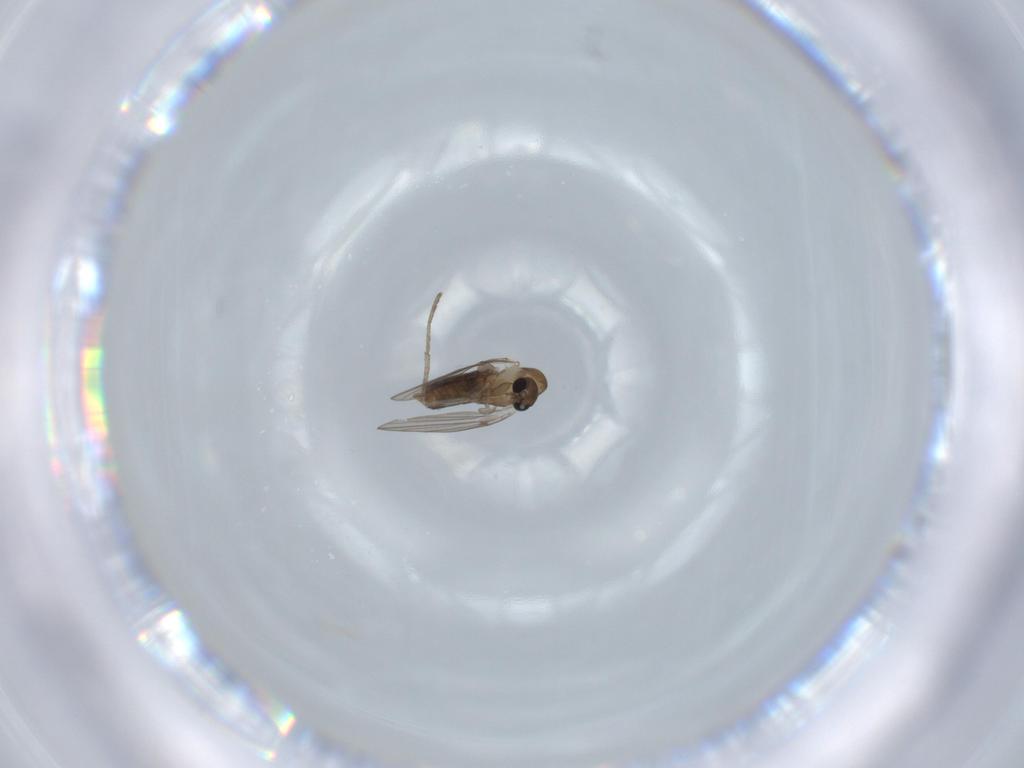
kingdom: Animalia
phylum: Arthropoda
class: Insecta
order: Diptera
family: Psychodidae
